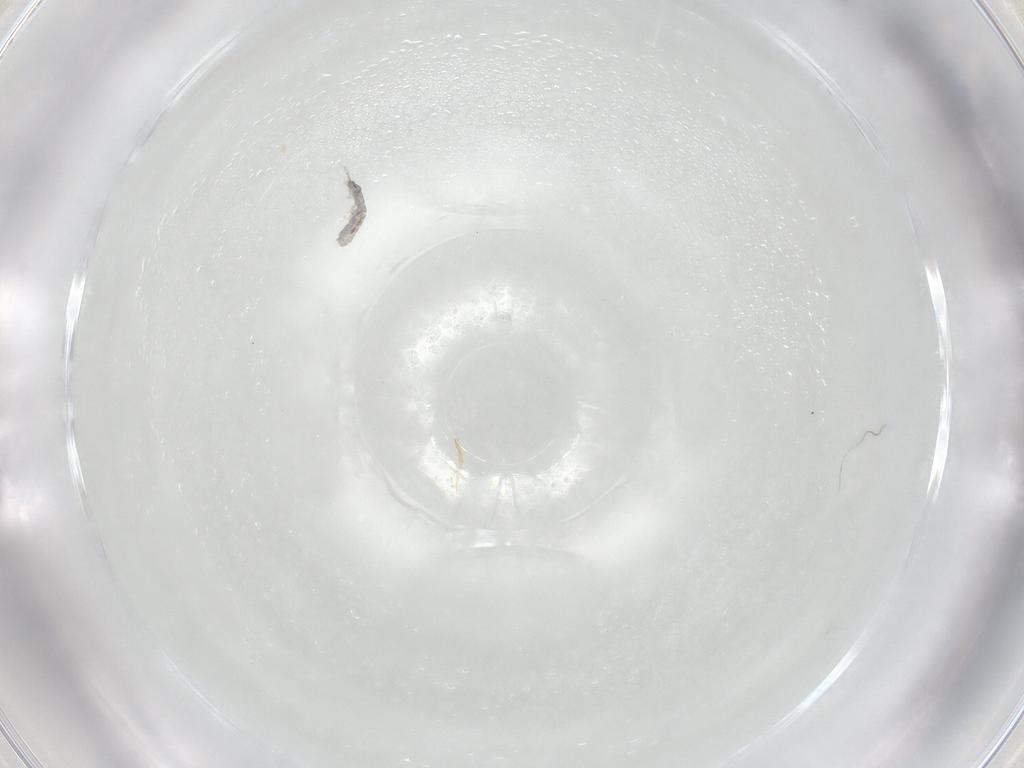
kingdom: Animalia
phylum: Arthropoda
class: Collembola
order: Entomobryomorpha
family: Isotomidae
